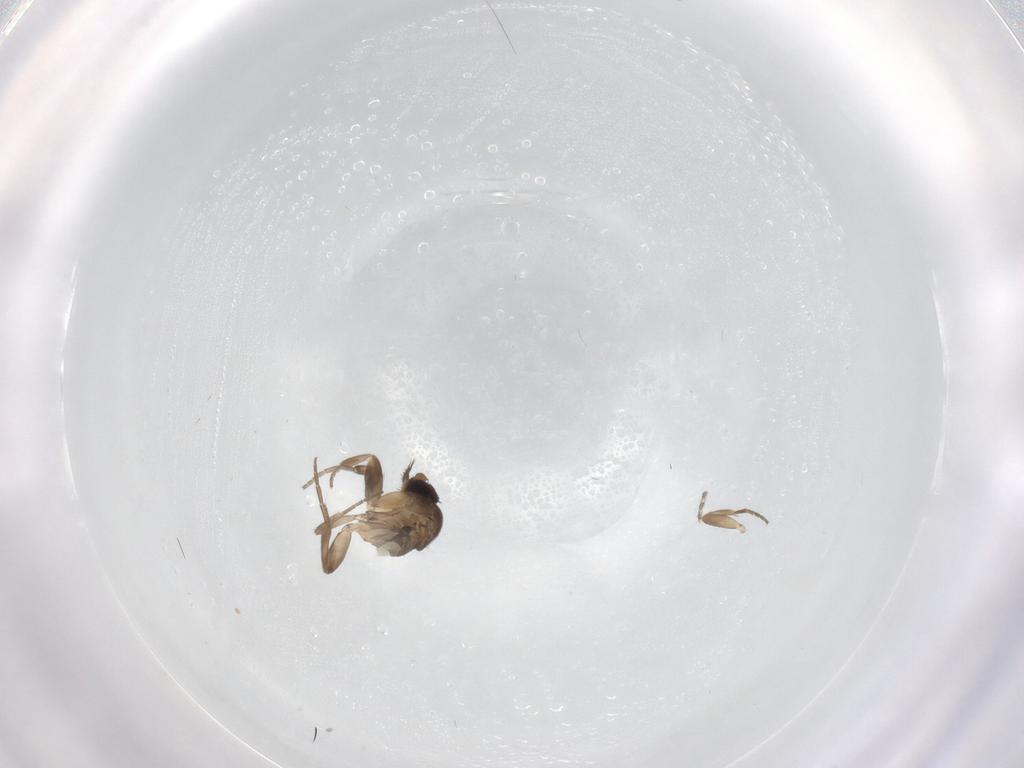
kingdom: Animalia
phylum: Arthropoda
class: Insecta
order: Diptera
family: Phoridae
